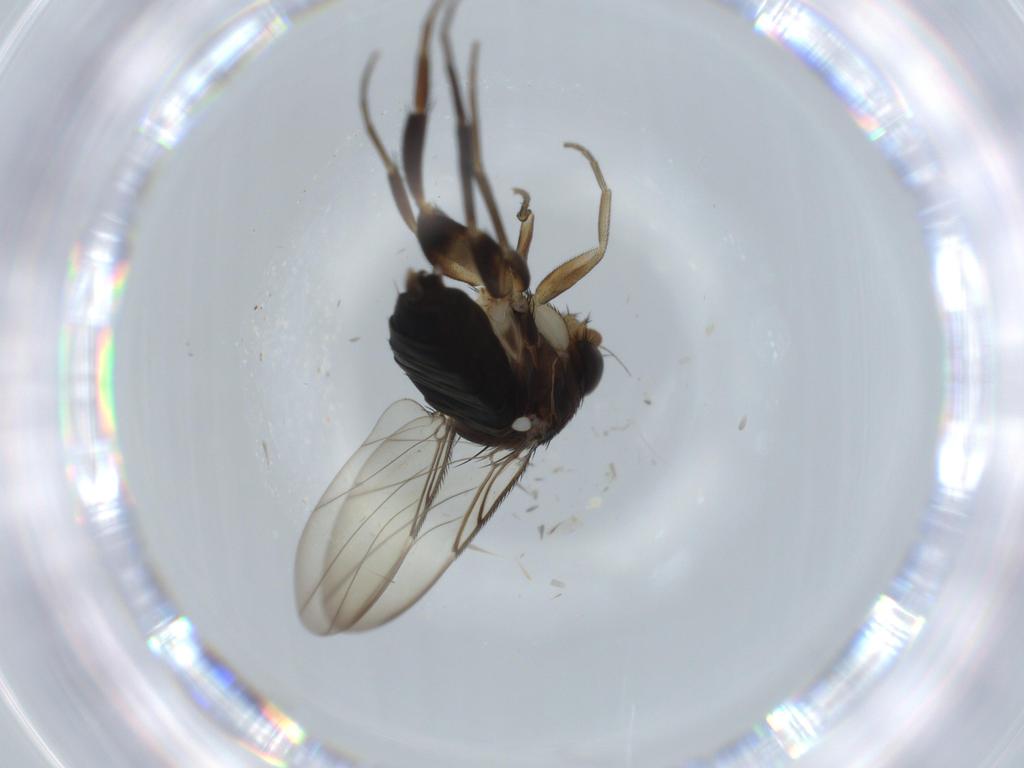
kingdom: Animalia
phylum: Arthropoda
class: Insecta
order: Diptera
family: Phoridae
